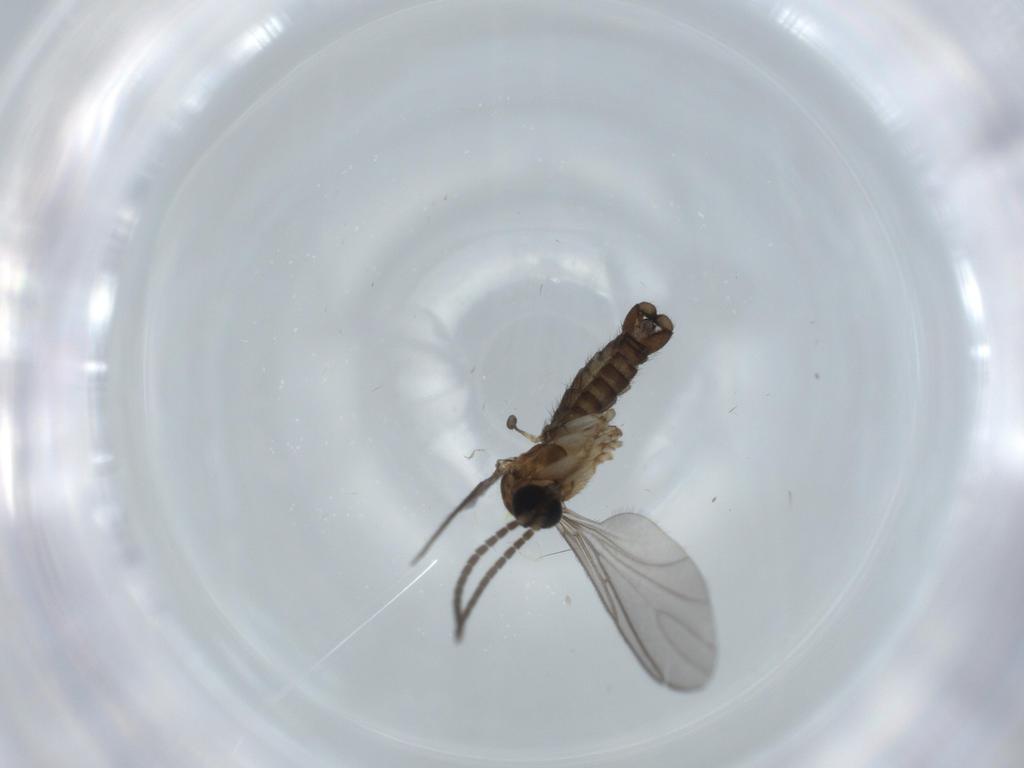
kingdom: Animalia
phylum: Arthropoda
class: Insecta
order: Diptera
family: Sciaridae
